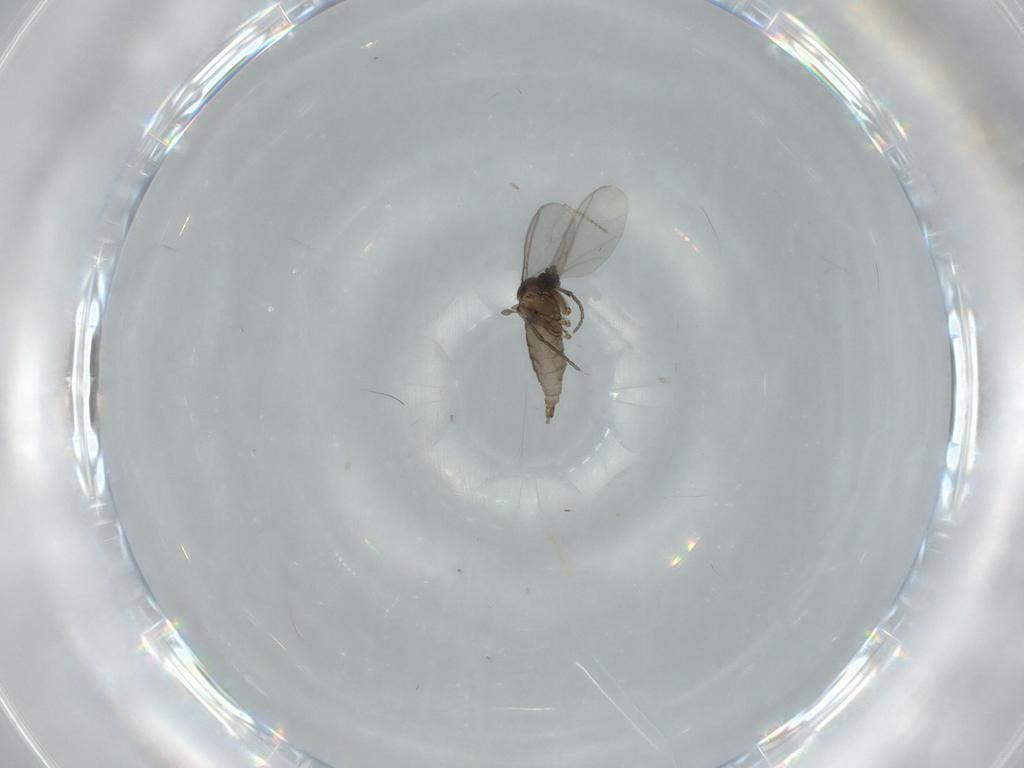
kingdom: Animalia
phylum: Arthropoda
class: Insecta
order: Diptera
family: Sciaridae
